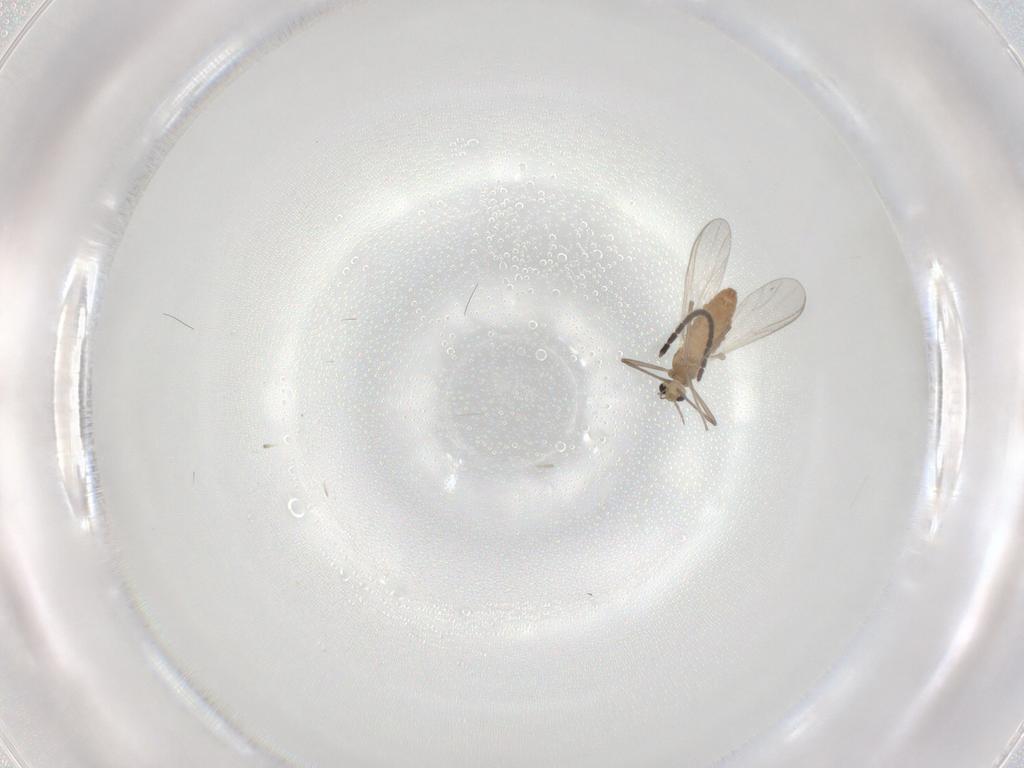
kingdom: Animalia
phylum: Arthropoda
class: Insecta
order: Diptera
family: Chironomidae
